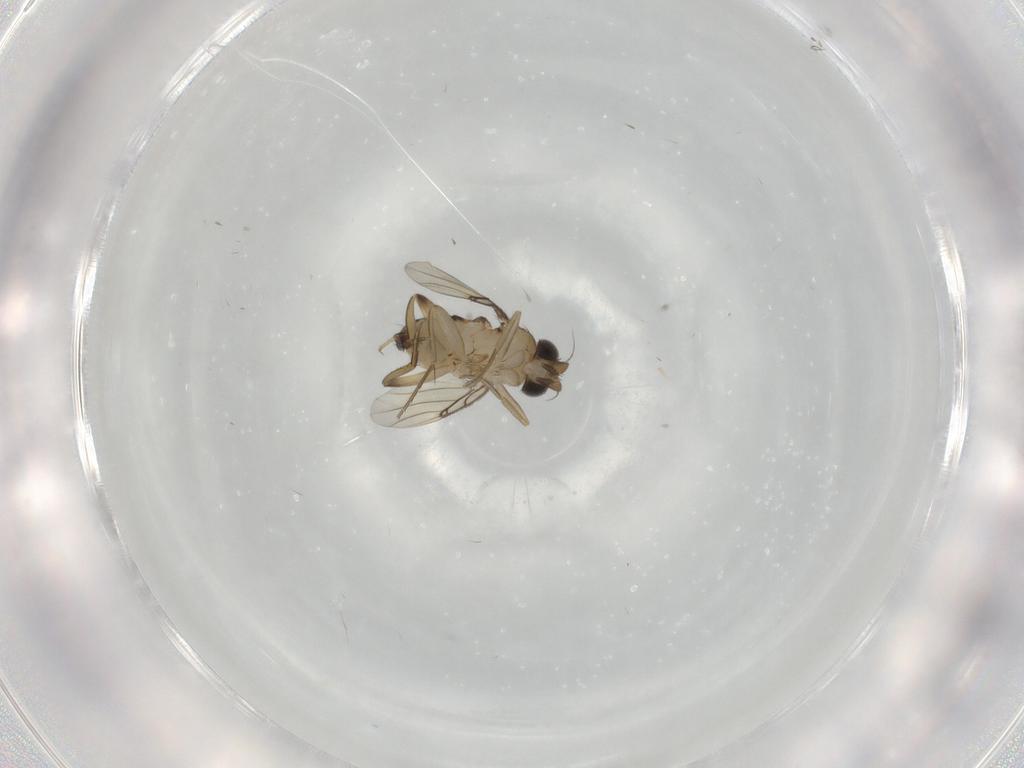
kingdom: Animalia
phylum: Arthropoda
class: Insecta
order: Diptera
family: Phoridae
